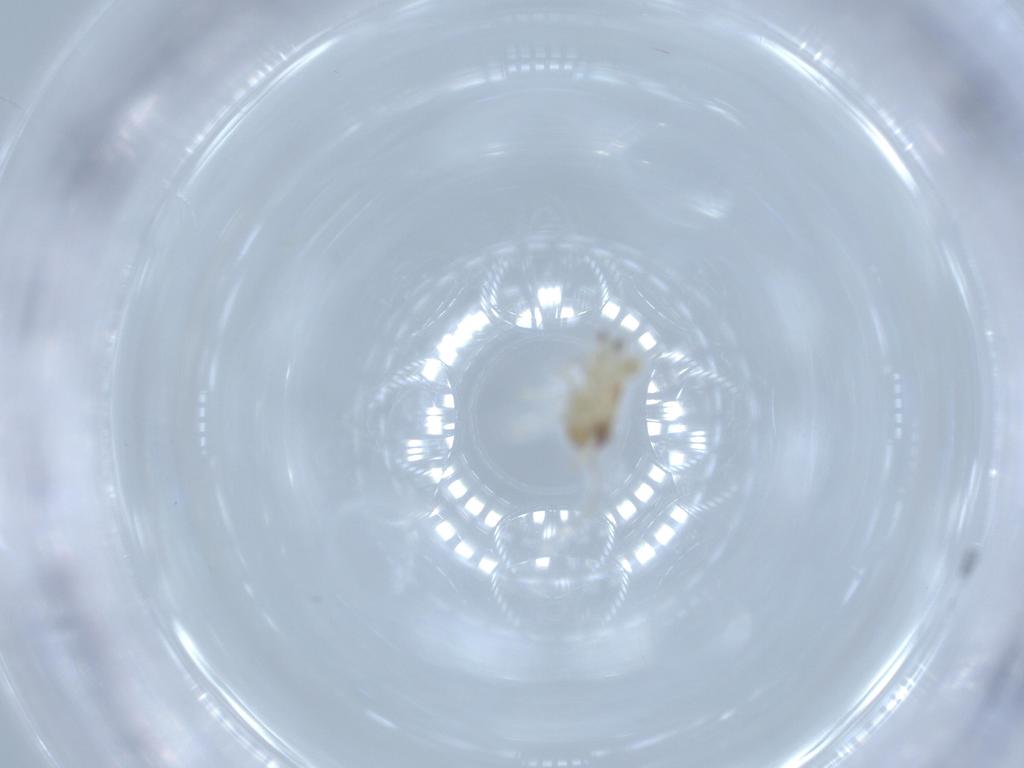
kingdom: Animalia
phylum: Arthropoda
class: Insecta
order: Hemiptera
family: Nogodinidae
